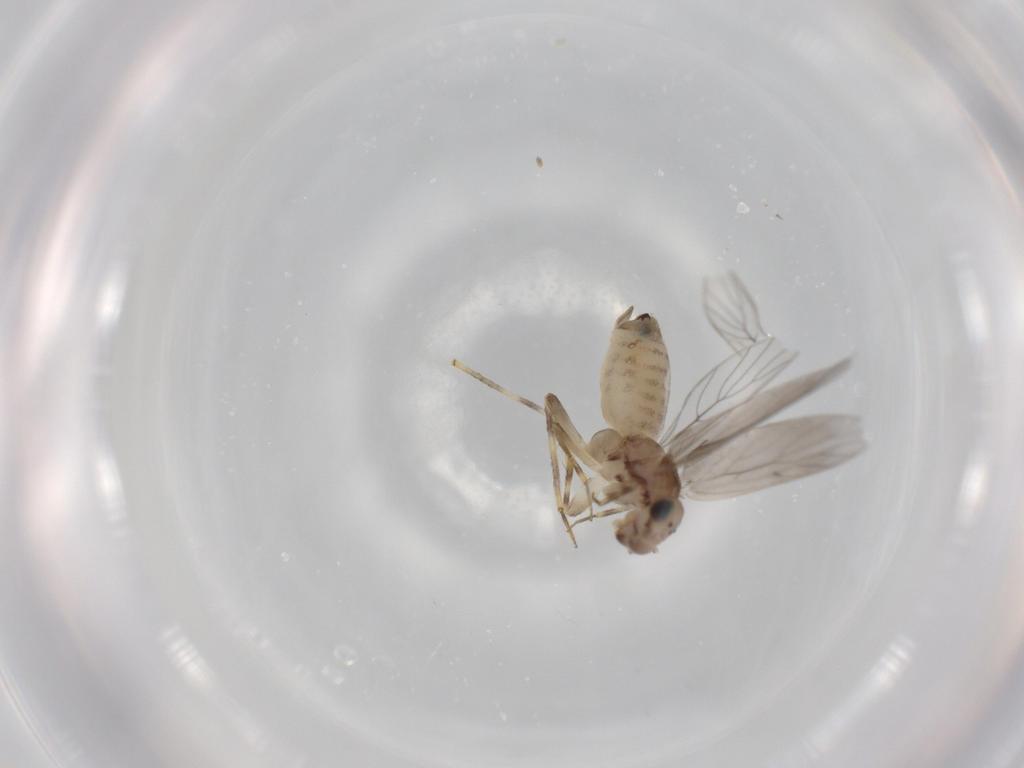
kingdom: Animalia
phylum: Arthropoda
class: Insecta
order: Psocodea
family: Lepidopsocidae
